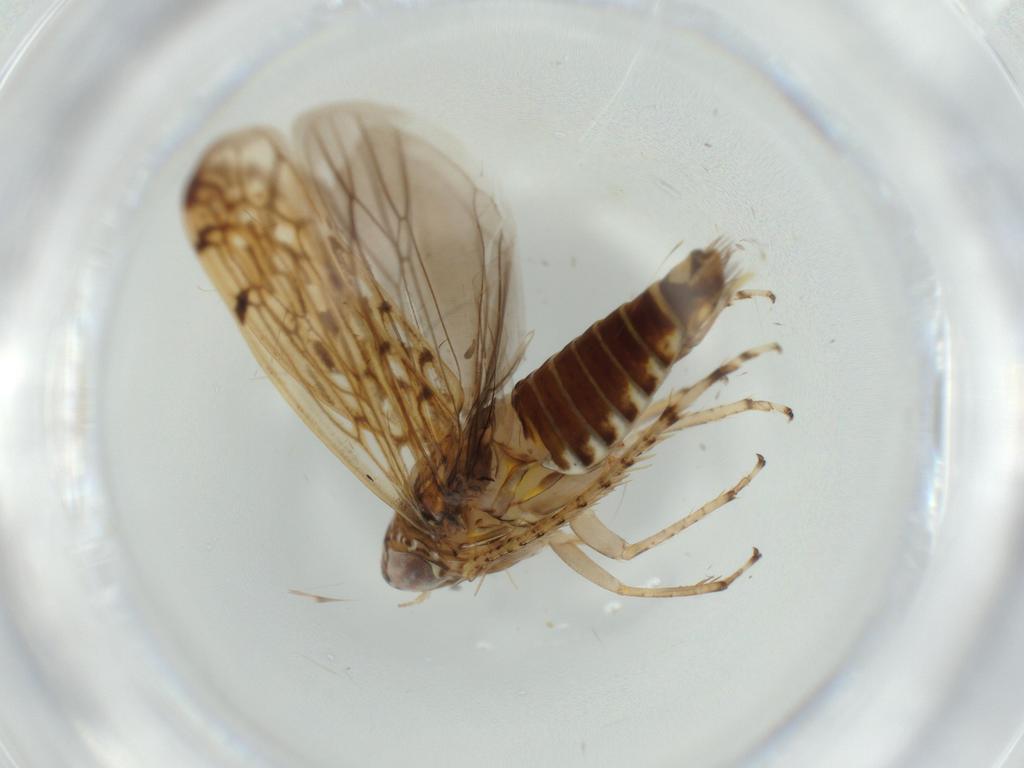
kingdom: Animalia
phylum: Arthropoda
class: Insecta
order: Hemiptera
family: Cicadellidae
